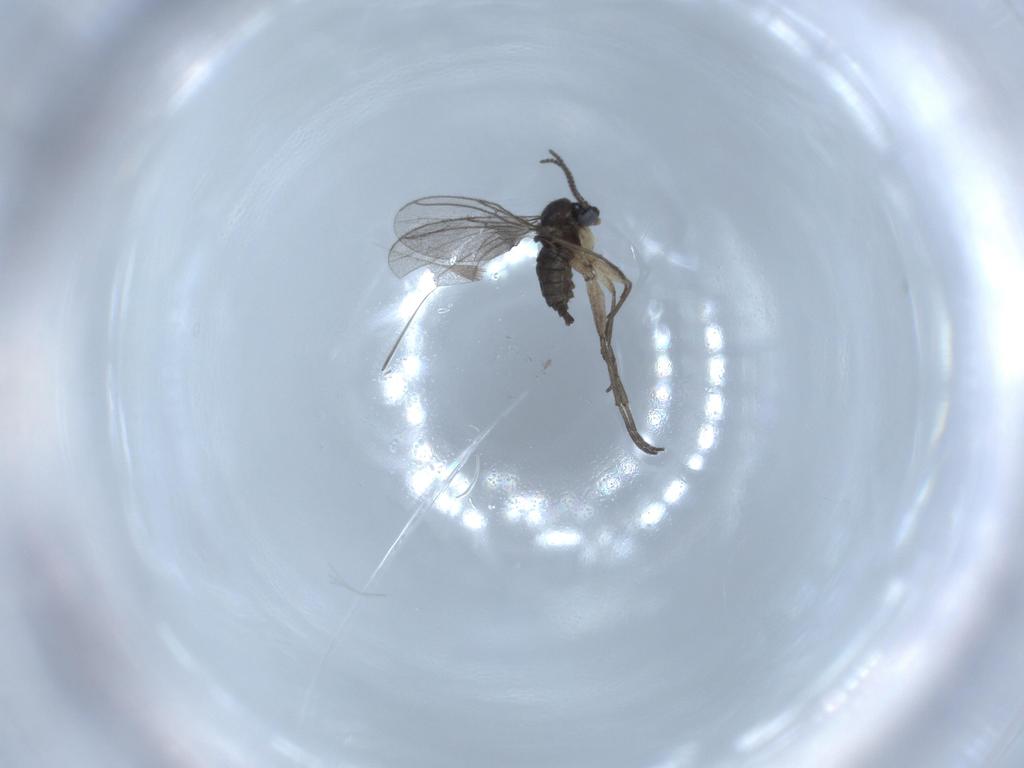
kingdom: Animalia
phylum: Arthropoda
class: Insecta
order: Diptera
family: Sciaridae
